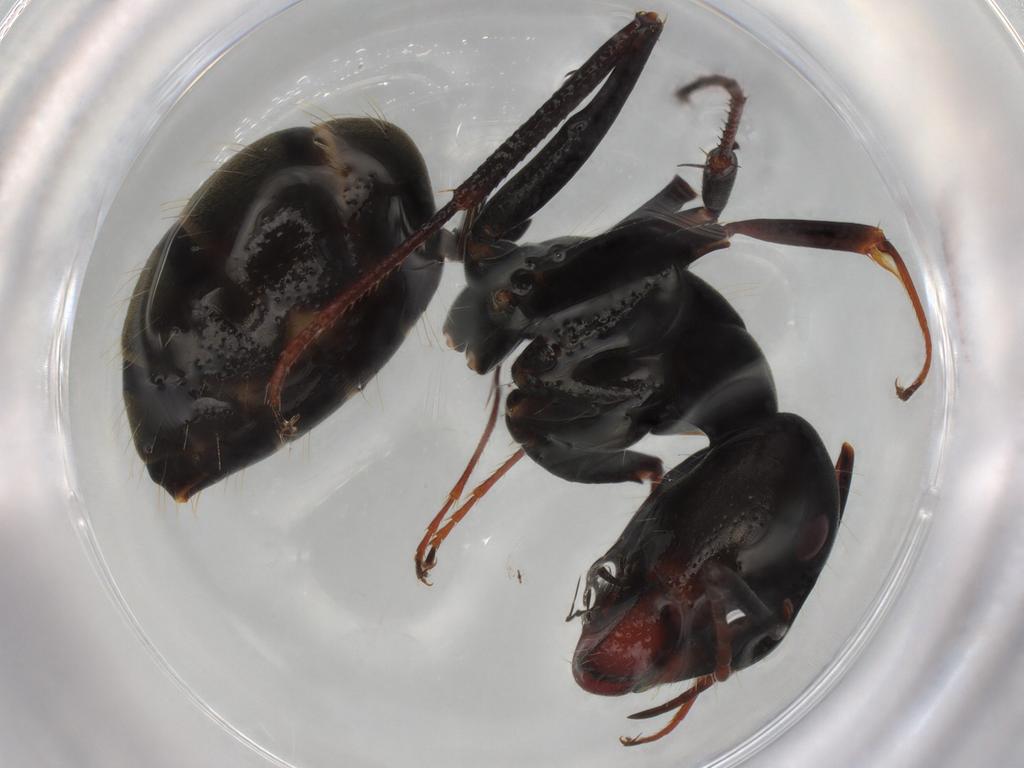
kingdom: Animalia
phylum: Arthropoda
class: Insecta
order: Hymenoptera
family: Formicidae
